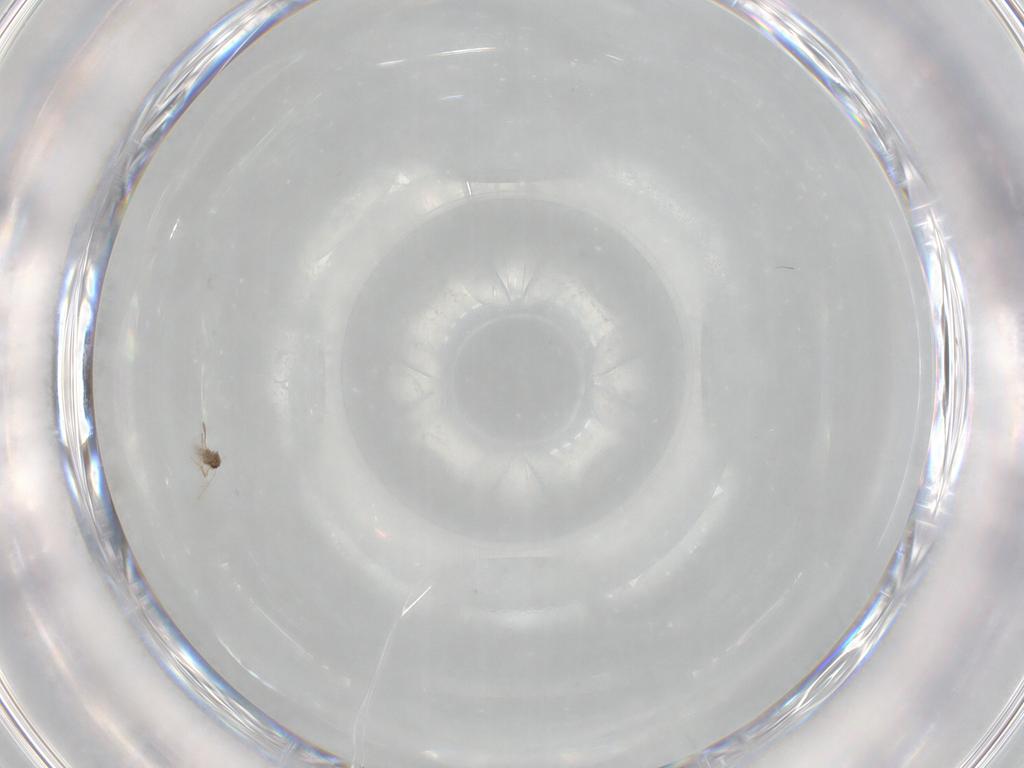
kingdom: Animalia
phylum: Arthropoda
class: Insecta
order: Hymenoptera
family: Mymaridae
